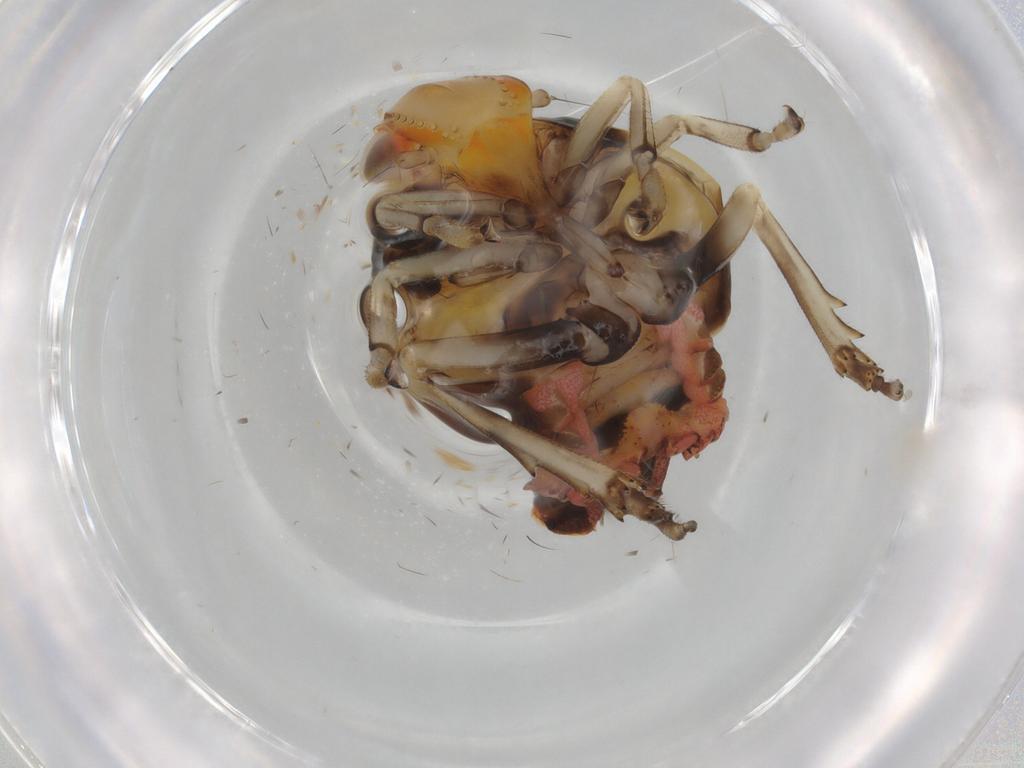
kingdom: Animalia
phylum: Arthropoda
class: Insecta
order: Hemiptera
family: Ricaniidae
